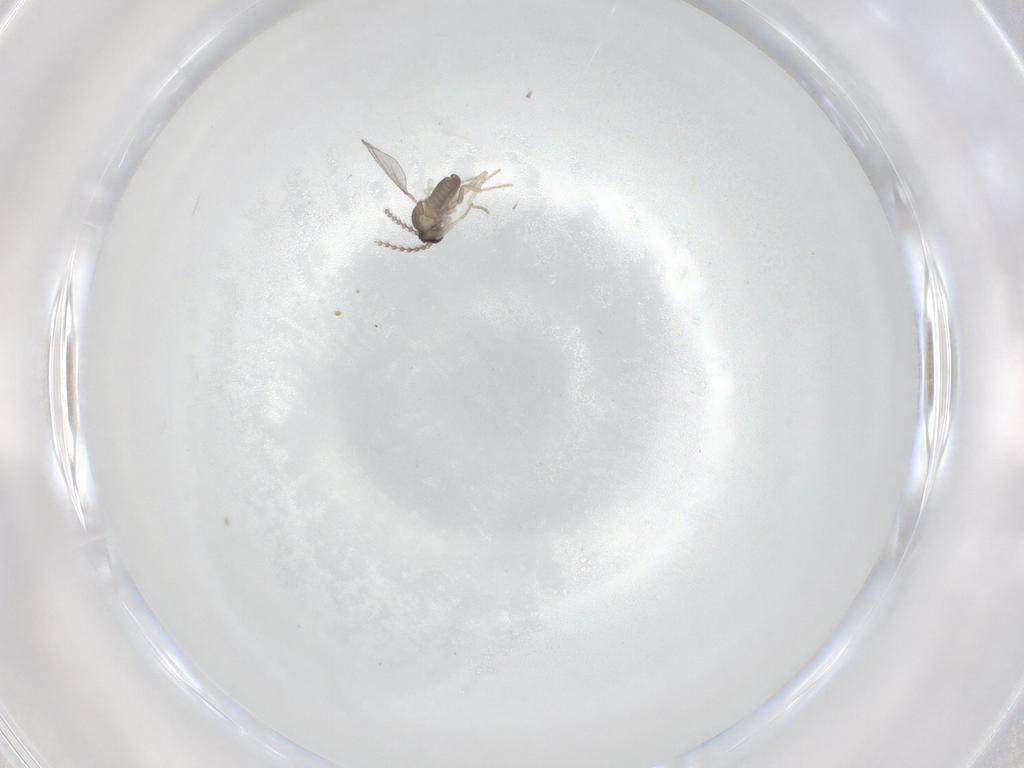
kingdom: Animalia
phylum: Arthropoda
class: Insecta
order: Diptera
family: Cecidomyiidae
